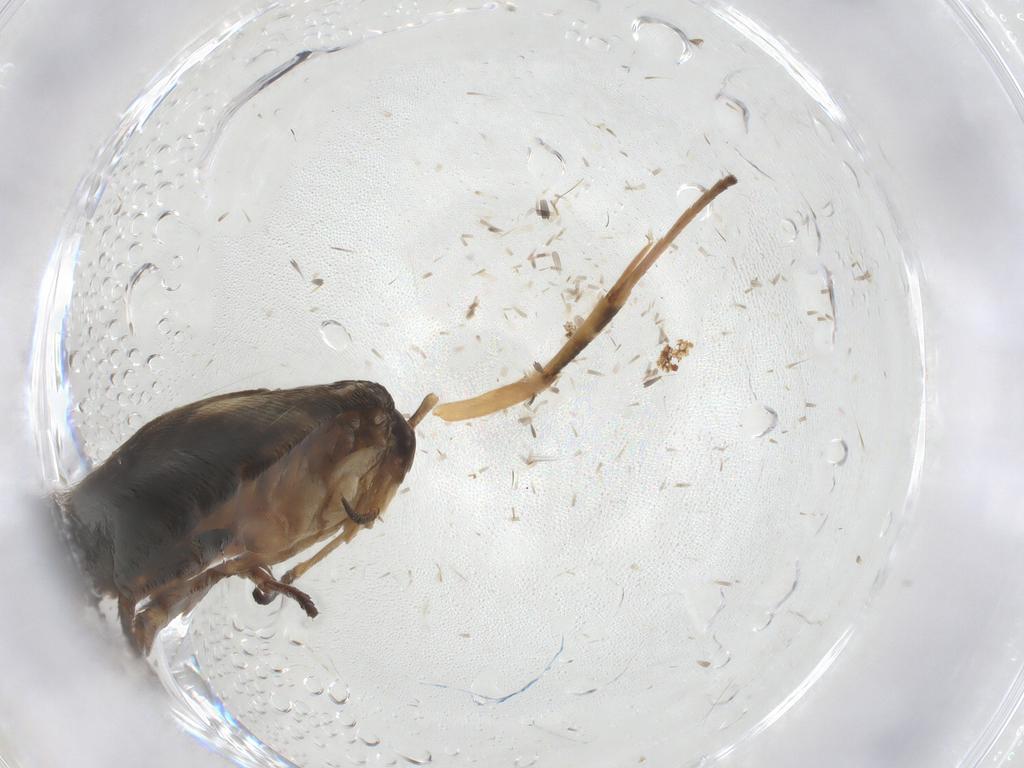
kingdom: Animalia
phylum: Arthropoda
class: Insecta
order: Lepidoptera
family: Cosmopterigidae
